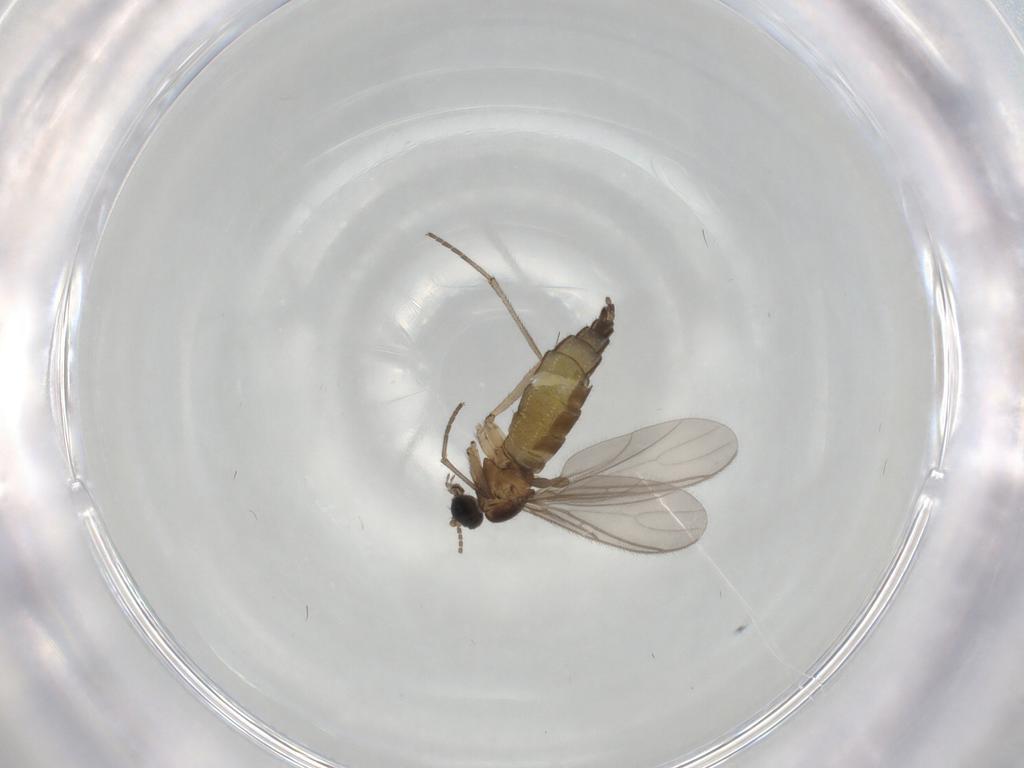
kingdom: Animalia
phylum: Arthropoda
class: Insecta
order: Diptera
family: Sciaridae
